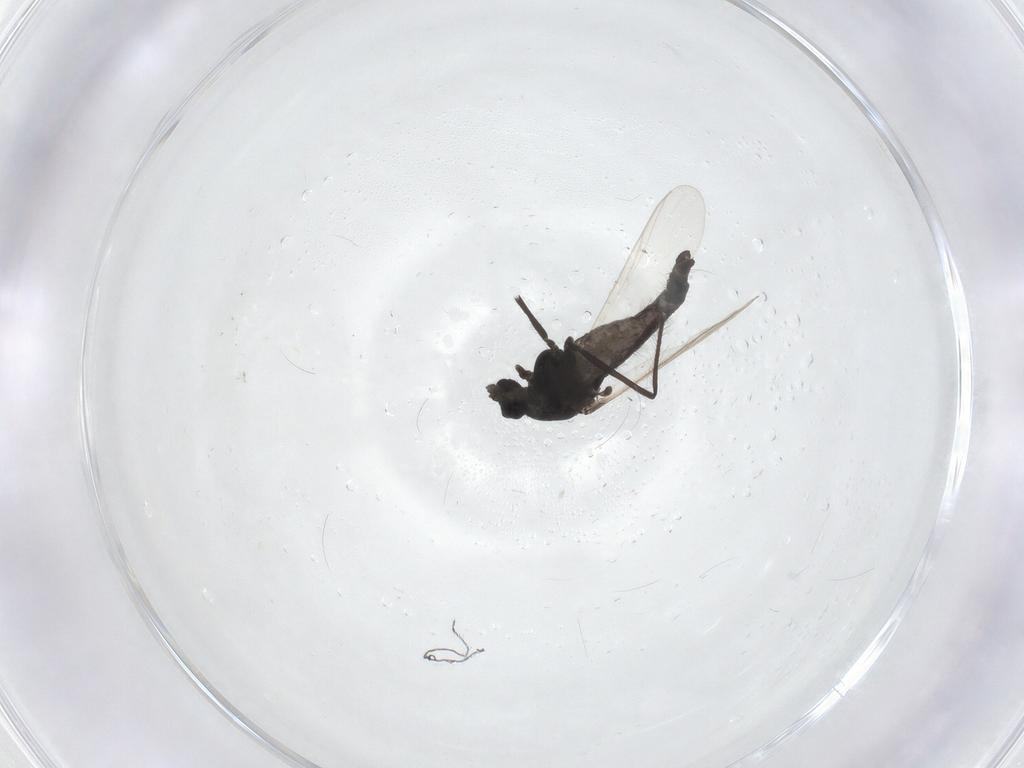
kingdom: Animalia
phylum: Arthropoda
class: Insecta
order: Diptera
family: Chironomidae
